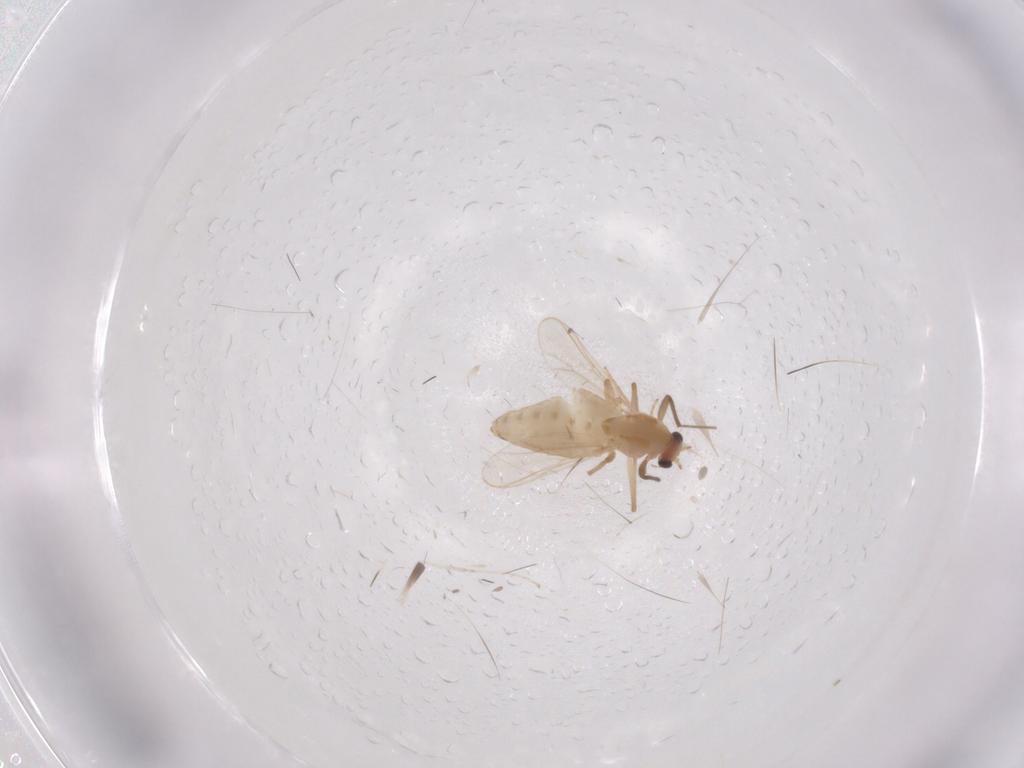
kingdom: Animalia
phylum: Arthropoda
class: Insecta
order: Diptera
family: Chironomidae
